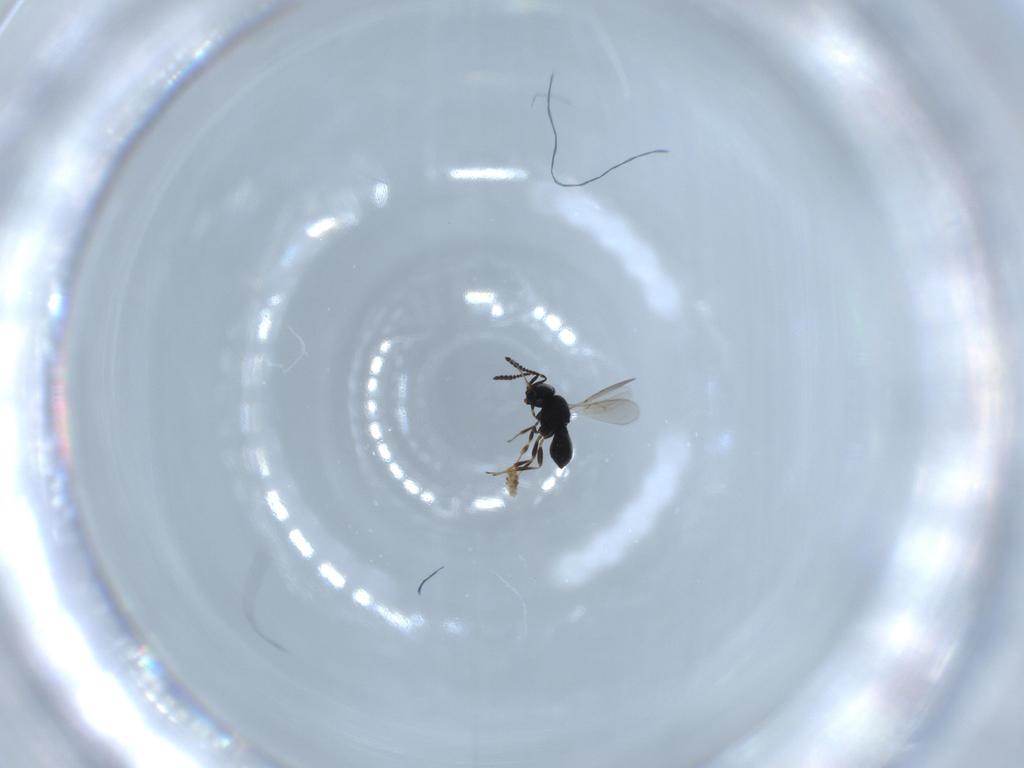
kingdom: Animalia
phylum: Arthropoda
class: Insecta
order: Hymenoptera
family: Scelionidae
